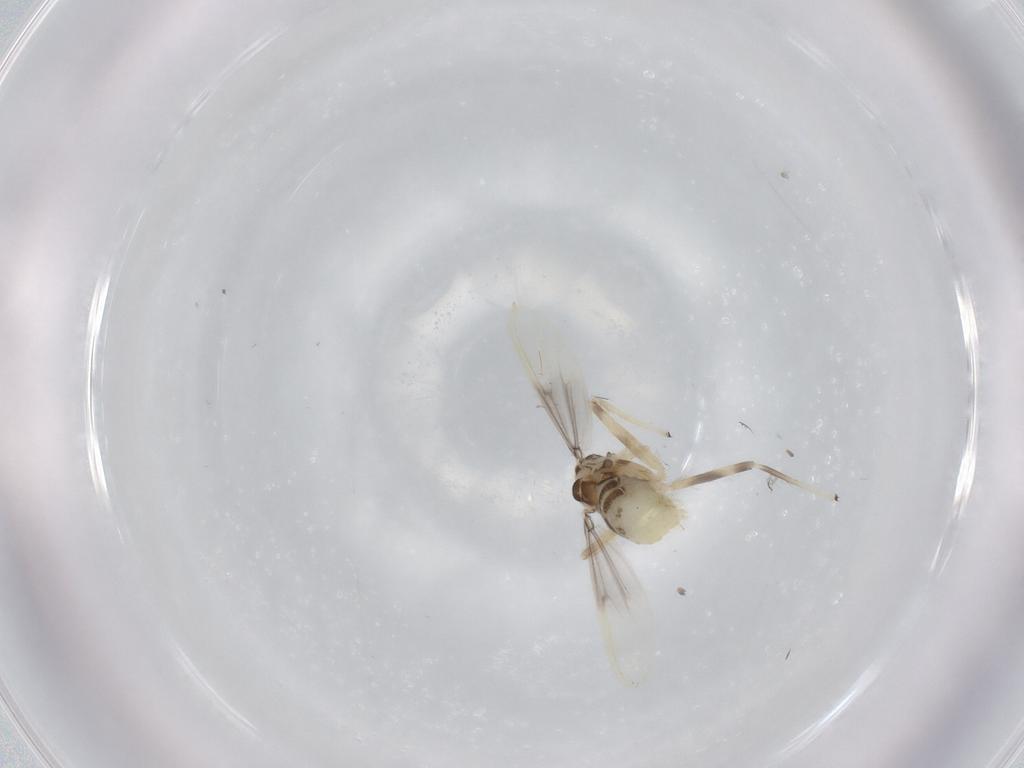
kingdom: Animalia
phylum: Arthropoda
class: Insecta
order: Diptera
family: Chironomidae
